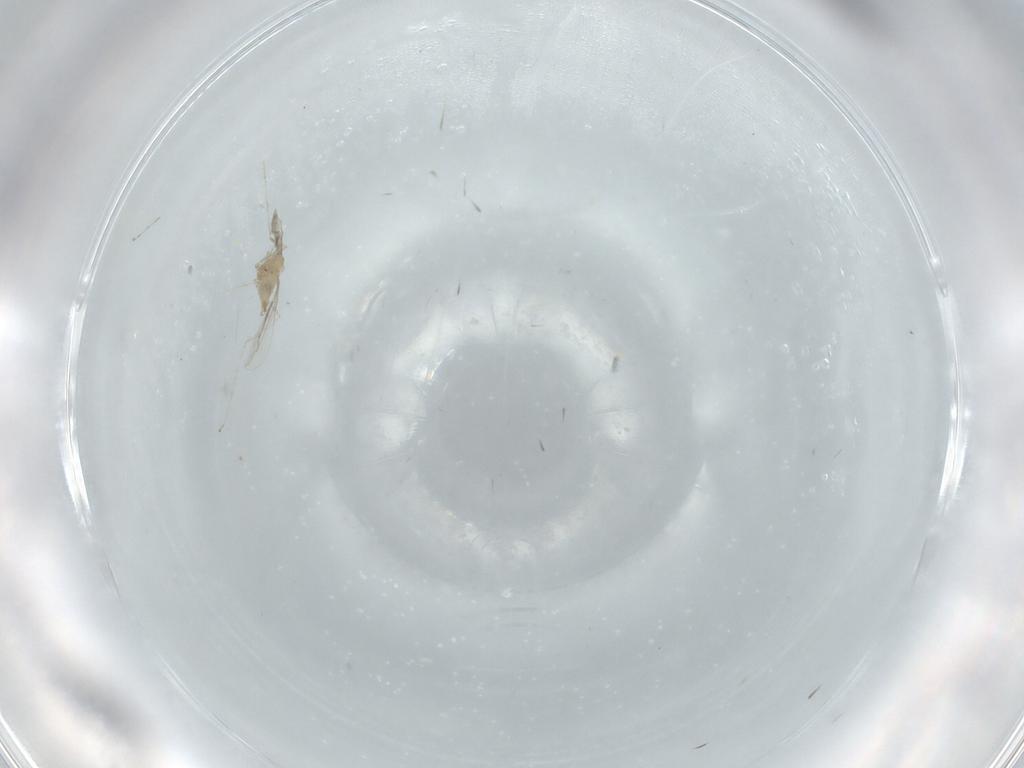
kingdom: Animalia
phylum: Arthropoda
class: Insecta
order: Diptera
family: Cecidomyiidae
